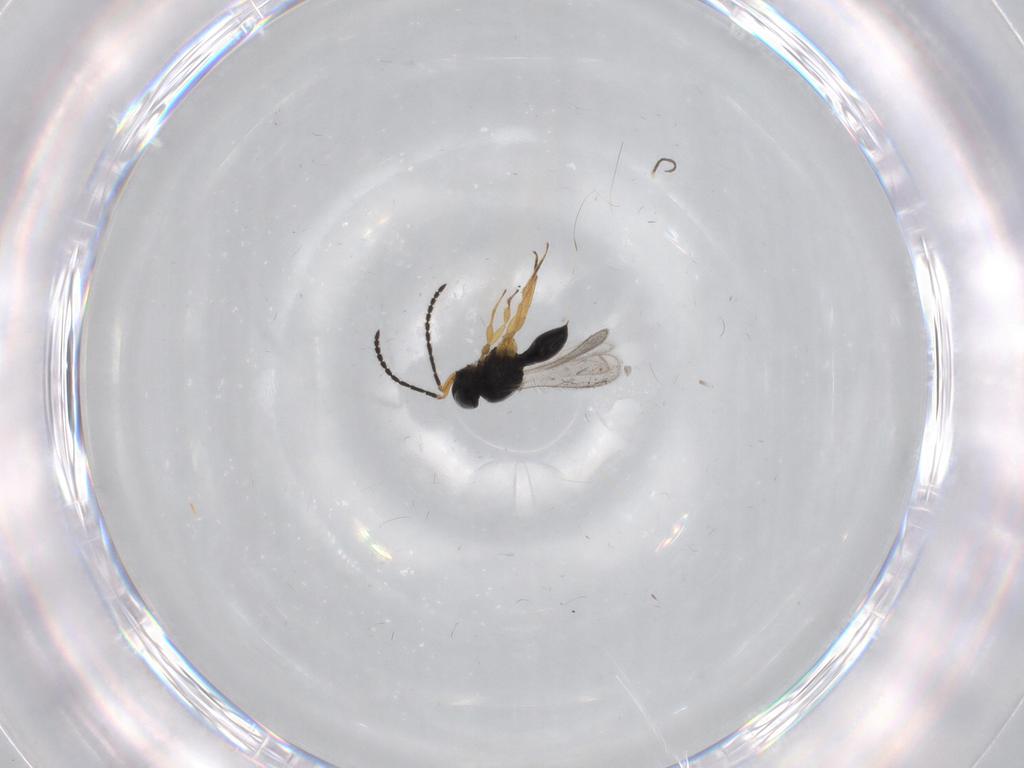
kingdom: Animalia
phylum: Arthropoda
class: Insecta
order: Hymenoptera
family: Scelionidae
